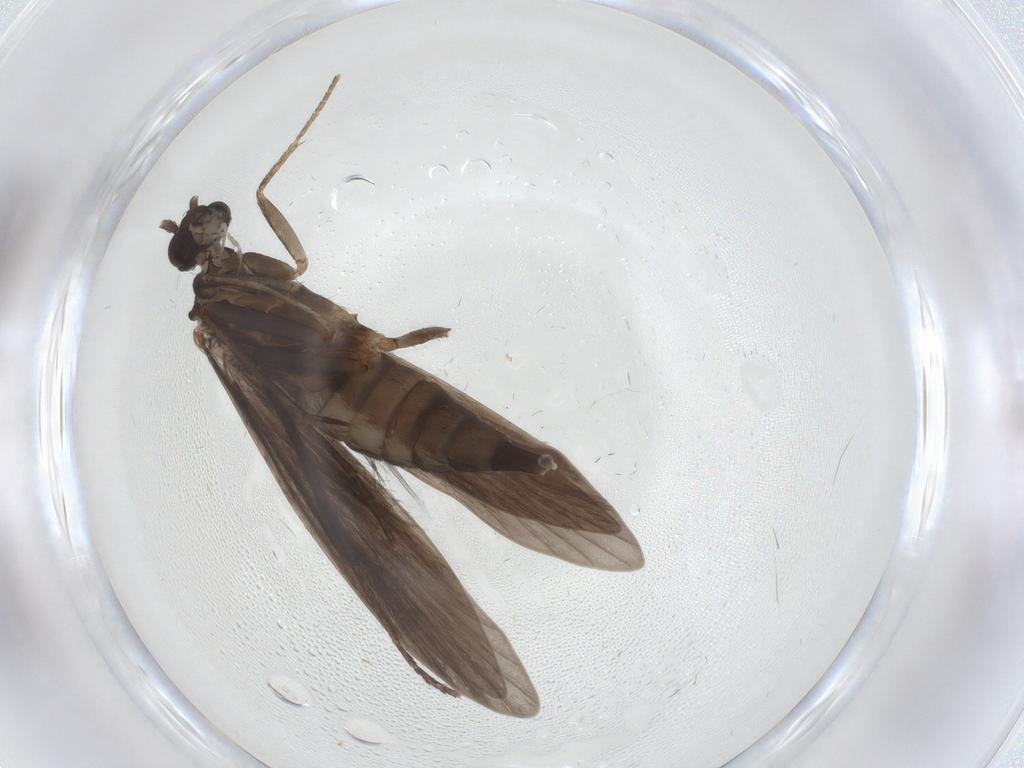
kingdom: Animalia
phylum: Arthropoda
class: Insecta
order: Trichoptera
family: Xiphocentronidae
